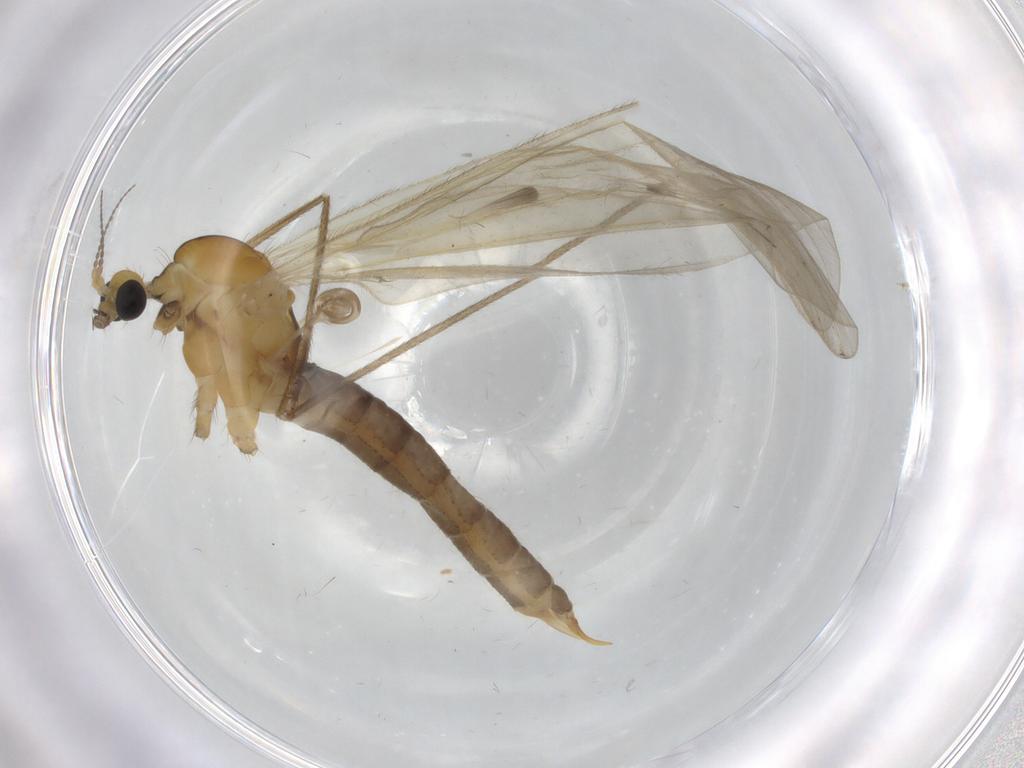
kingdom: Animalia
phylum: Arthropoda
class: Insecta
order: Diptera
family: Limoniidae
